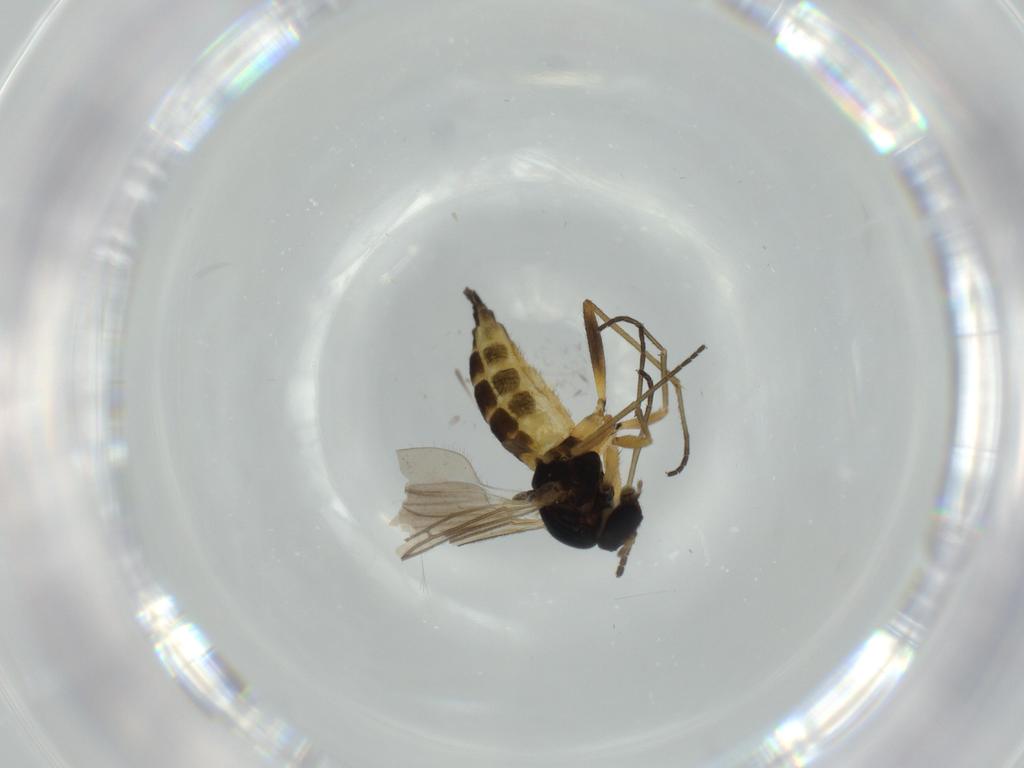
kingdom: Animalia
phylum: Arthropoda
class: Insecta
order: Diptera
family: Sciaridae
